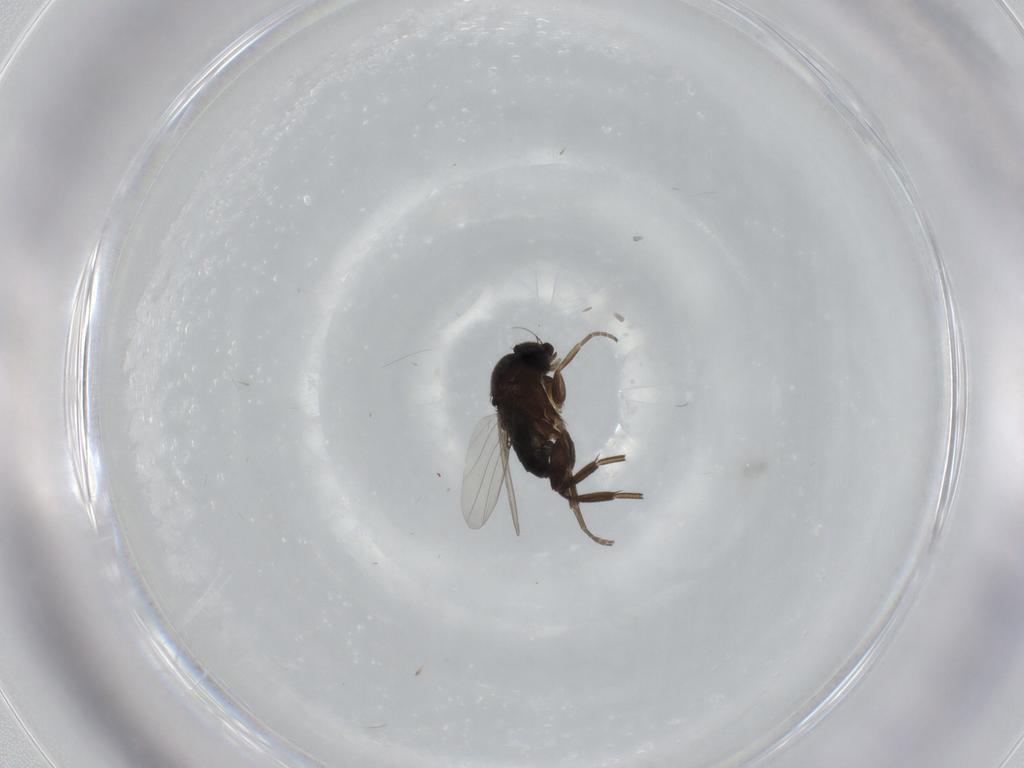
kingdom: Animalia
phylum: Arthropoda
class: Insecta
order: Diptera
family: Phoridae
